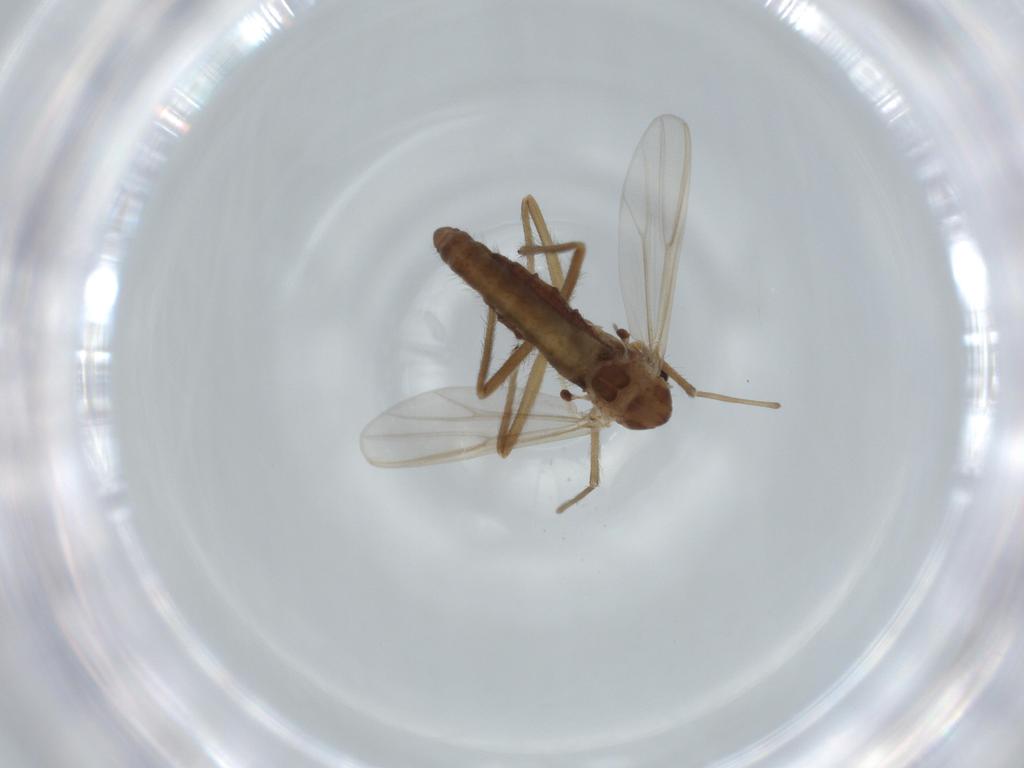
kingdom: Animalia
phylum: Arthropoda
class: Insecta
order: Diptera
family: Chironomidae
